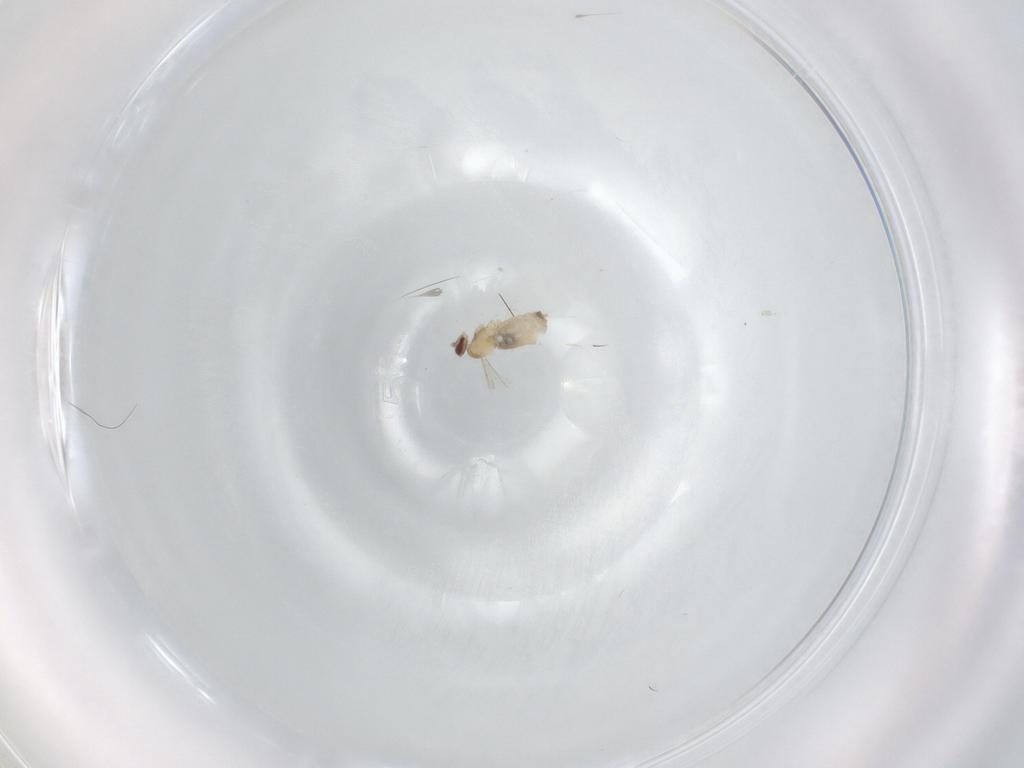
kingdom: Animalia
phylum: Arthropoda
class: Insecta
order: Diptera
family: Cecidomyiidae
